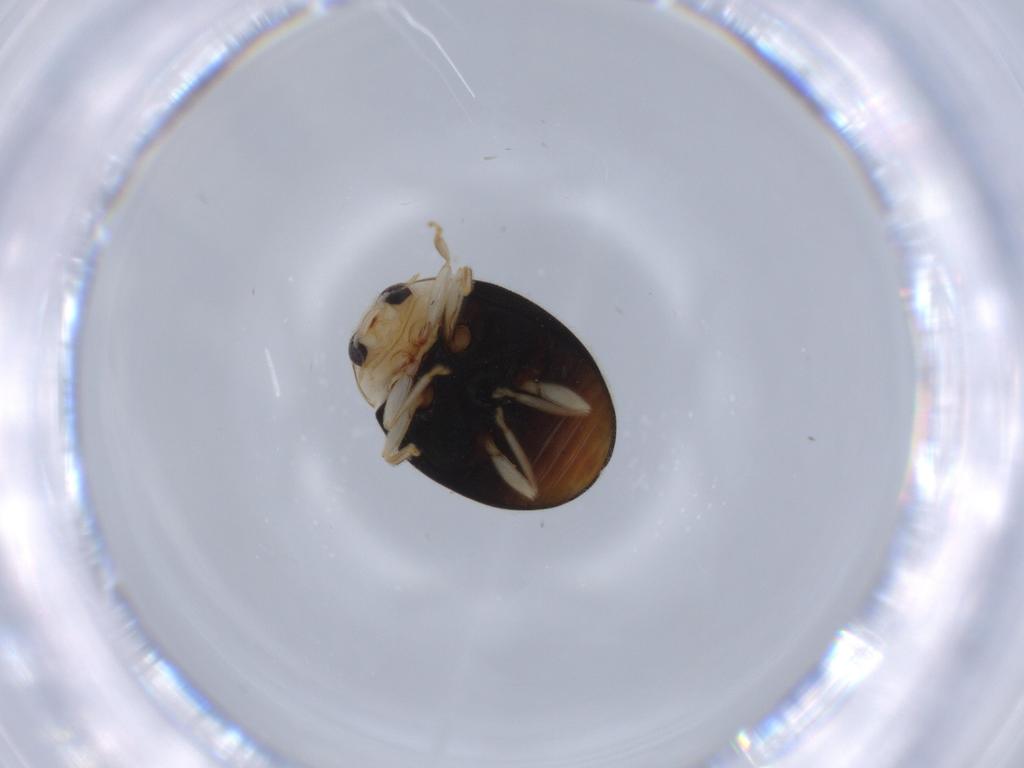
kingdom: Animalia
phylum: Arthropoda
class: Insecta
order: Coleoptera
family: Coccinellidae
